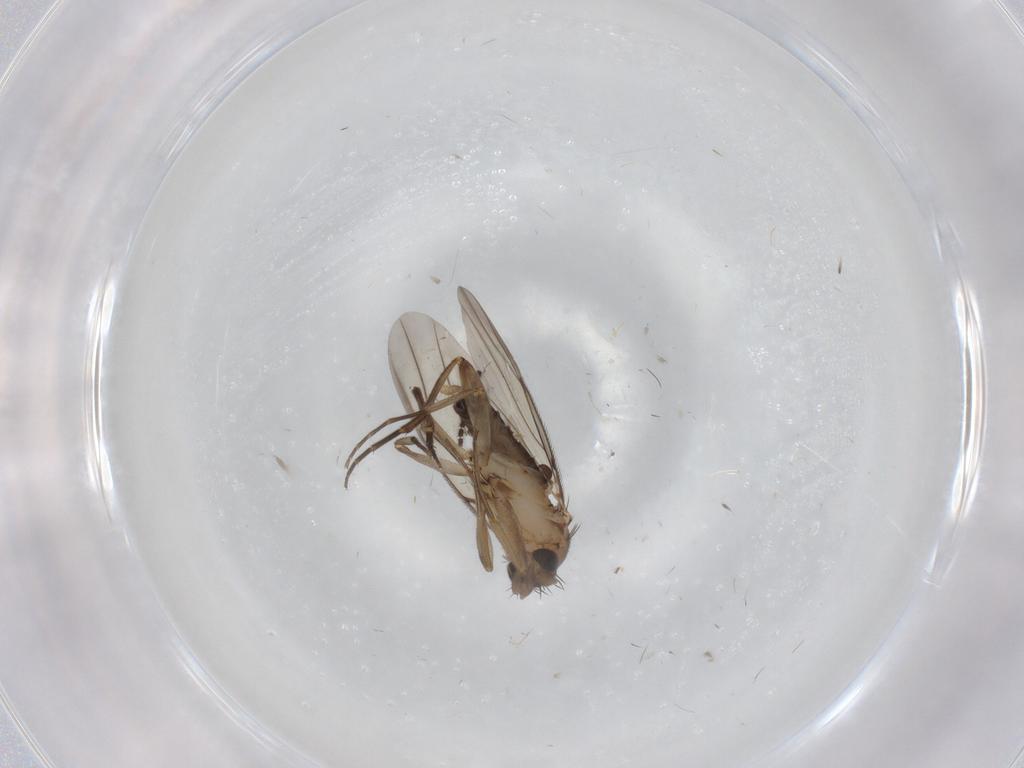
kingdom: Animalia
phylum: Arthropoda
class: Insecta
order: Diptera
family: Phoridae
